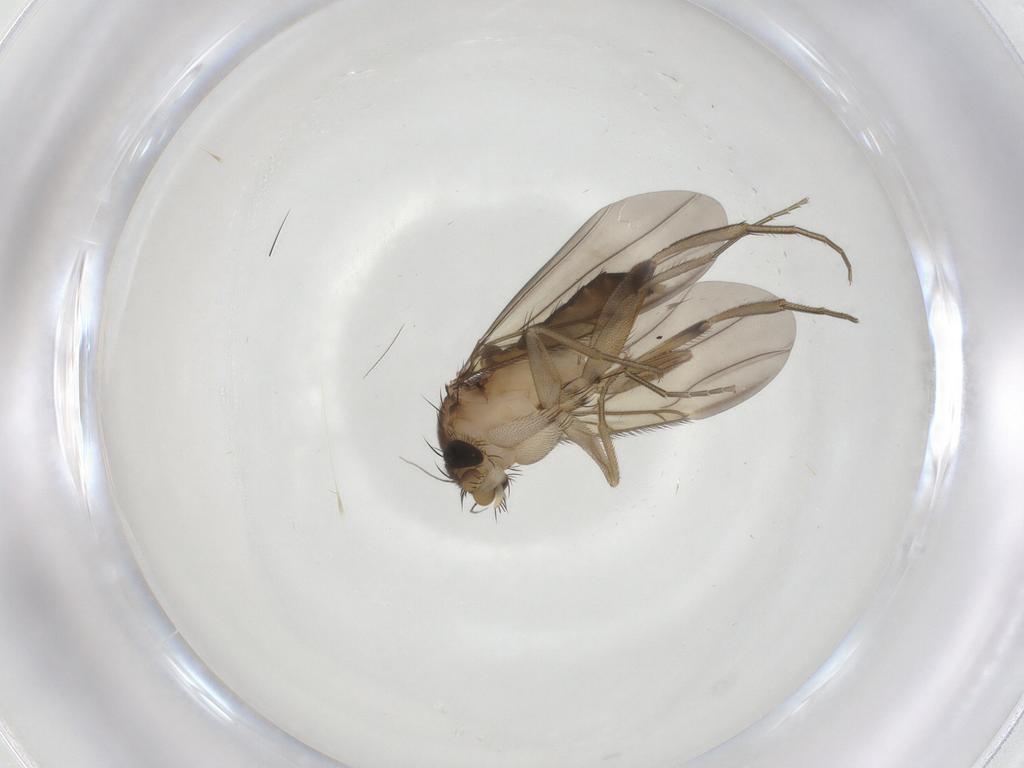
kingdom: Animalia
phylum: Arthropoda
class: Insecta
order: Diptera
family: Phoridae
